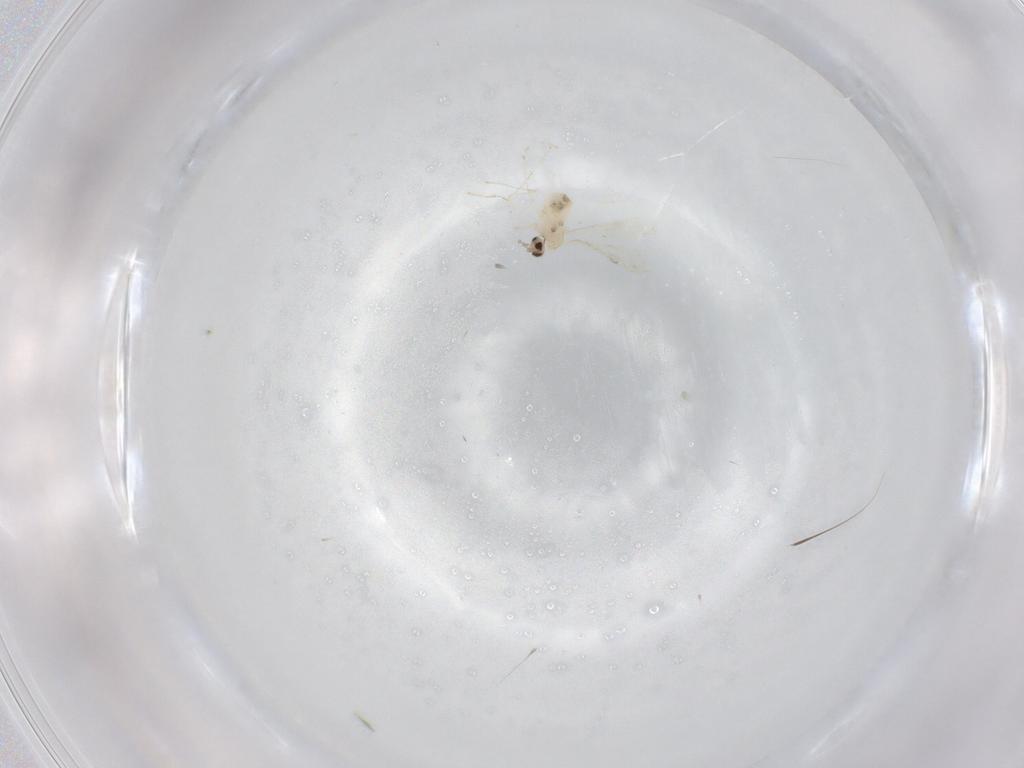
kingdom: Animalia
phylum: Arthropoda
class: Insecta
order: Diptera
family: Cecidomyiidae
